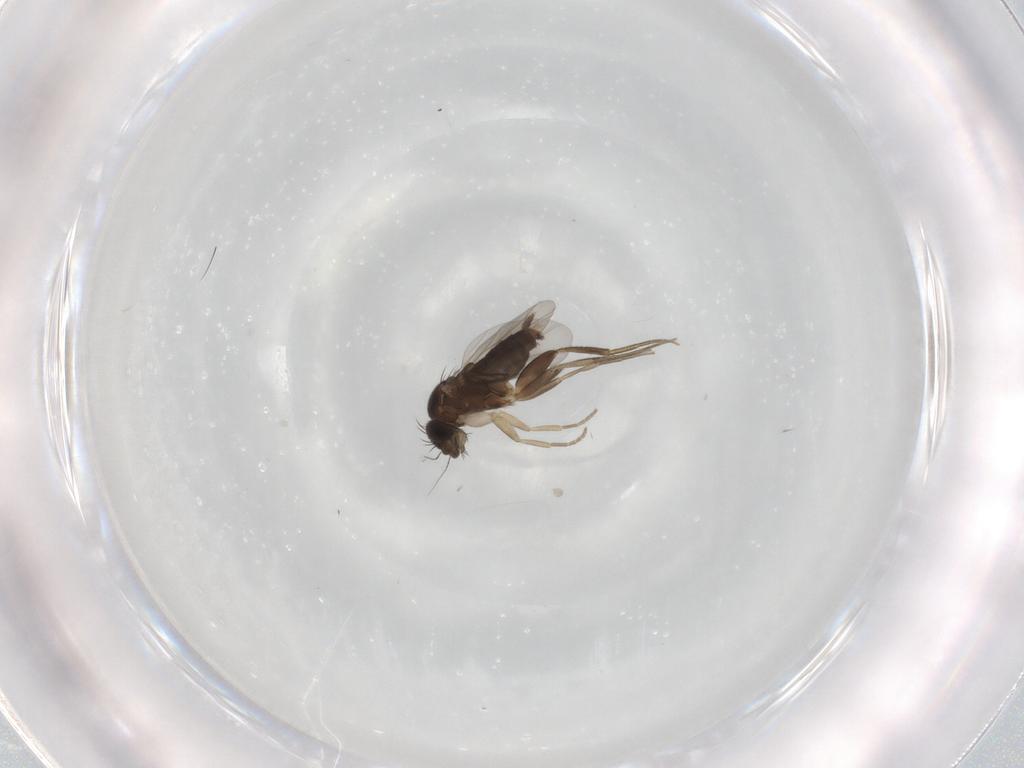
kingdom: Animalia
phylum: Arthropoda
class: Insecta
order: Diptera
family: Phoridae
